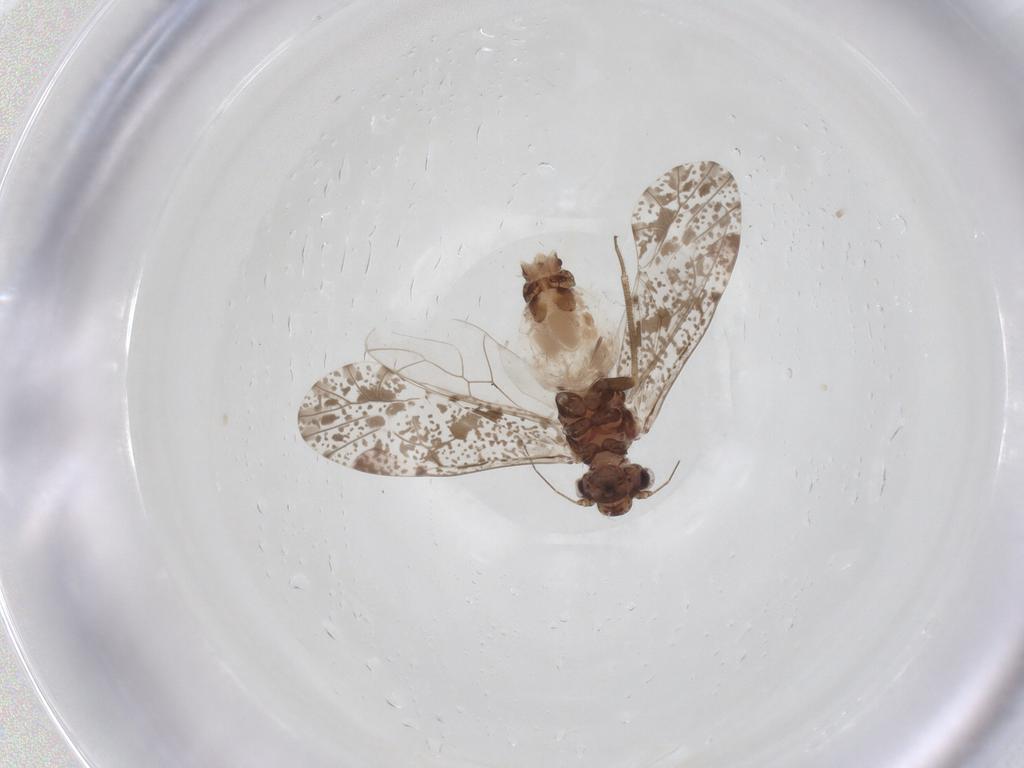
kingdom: Animalia
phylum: Arthropoda
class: Insecta
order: Psocodea
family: Psocidae
